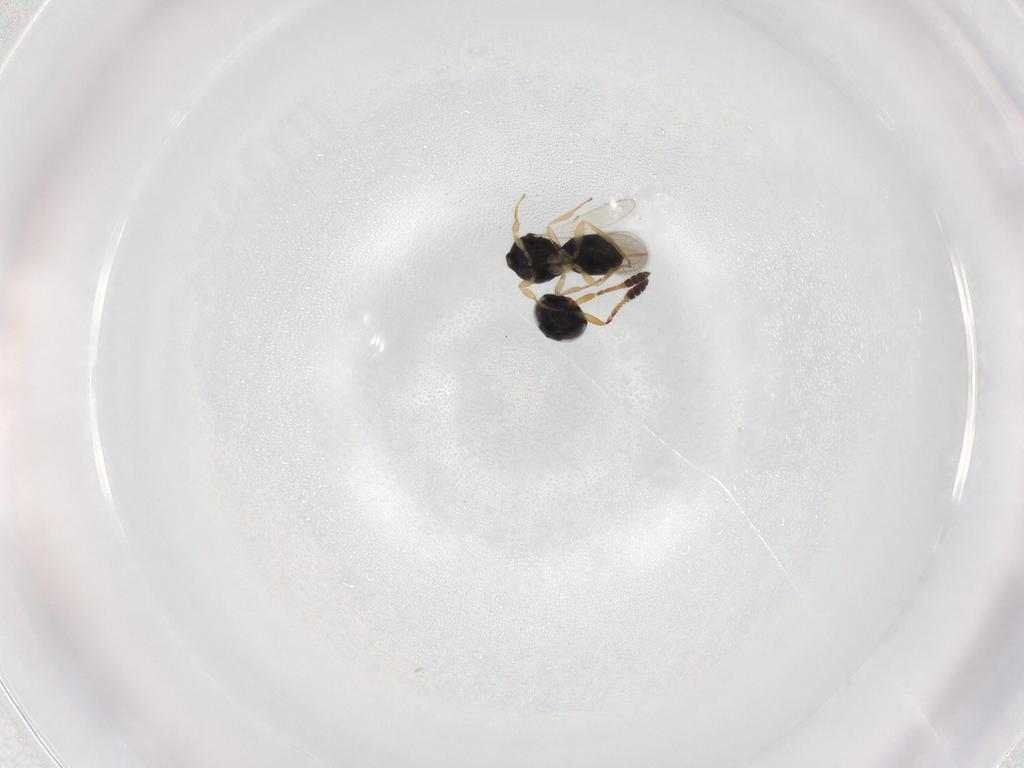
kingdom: Animalia
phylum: Arthropoda
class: Insecta
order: Hymenoptera
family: Scelionidae
